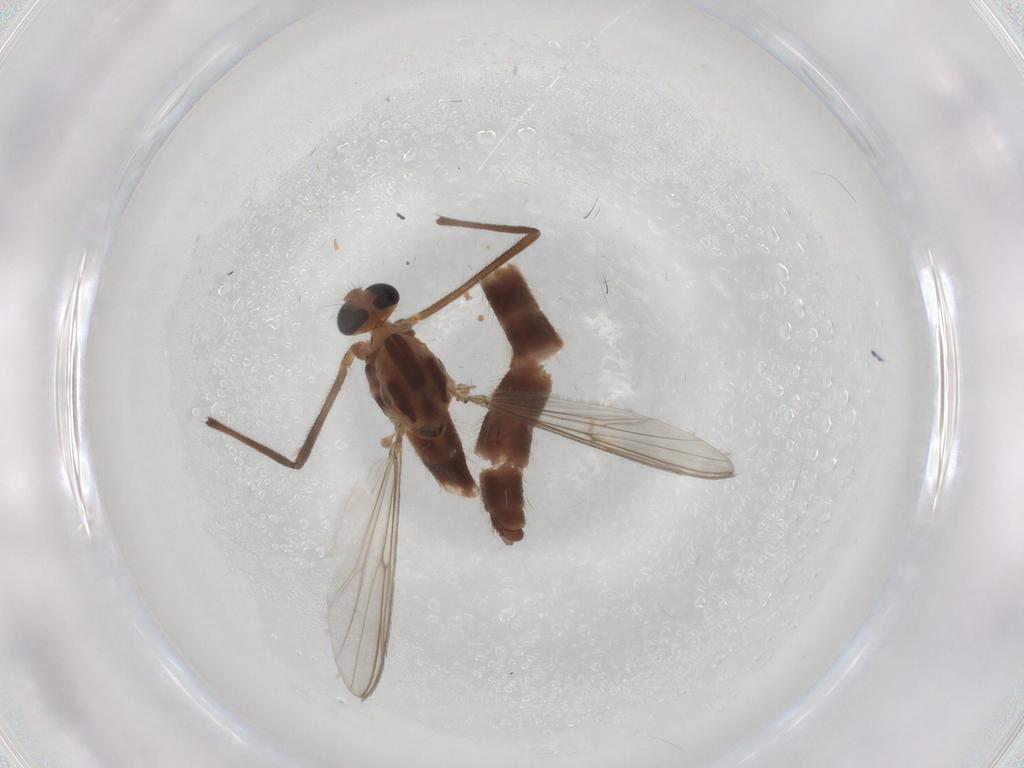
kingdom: Animalia
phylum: Arthropoda
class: Insecta
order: Diptera
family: Chironomidae
